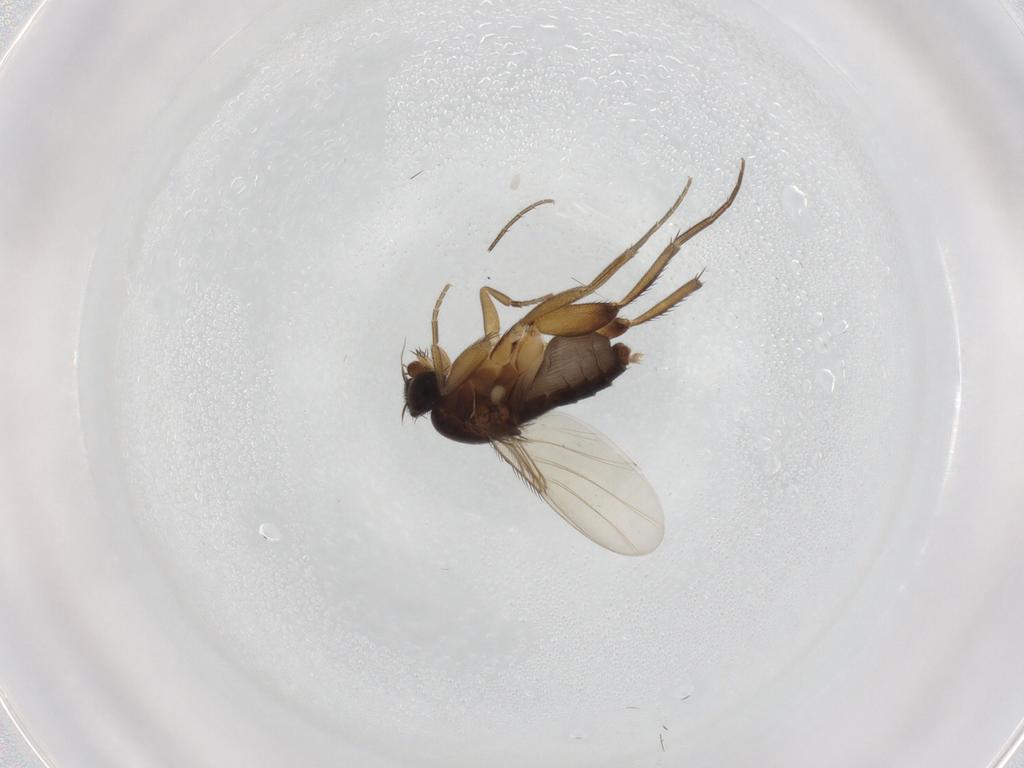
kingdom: Animalia
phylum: Arthropoda
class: Insecta
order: Diptera
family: Phoridae
